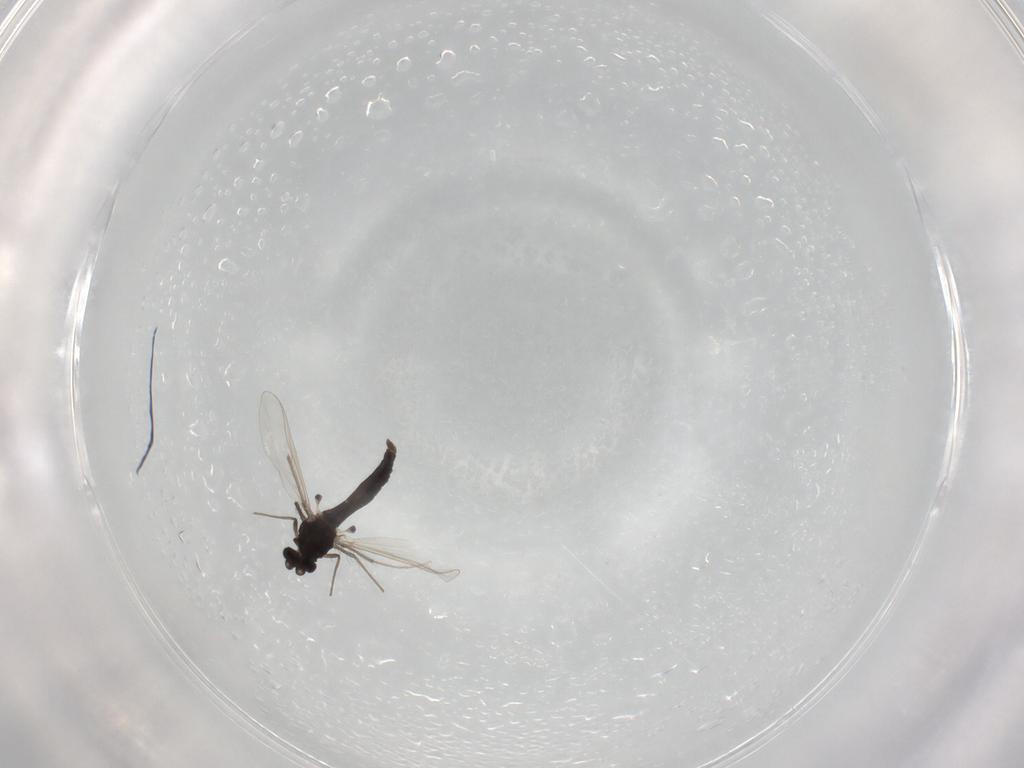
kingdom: Animalia
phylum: Arthropoda
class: Insecta
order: Diptera
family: Chironomidae
